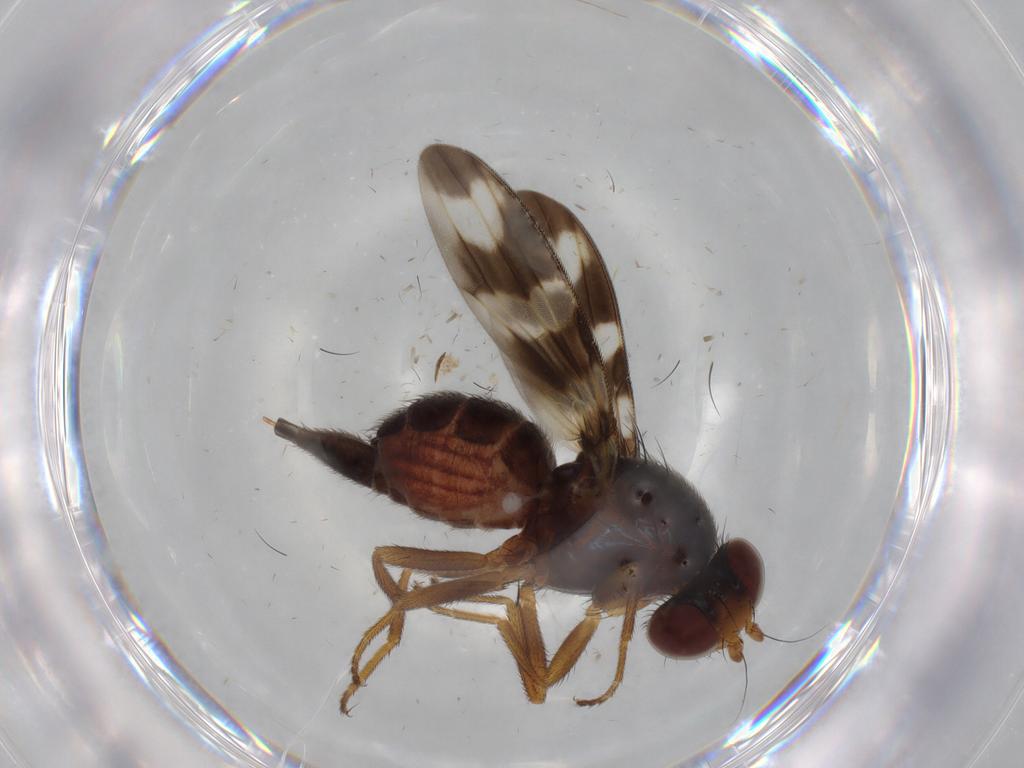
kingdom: Animalia
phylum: Arthropoda
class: Insecta
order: Diptera
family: Ulidiidae
